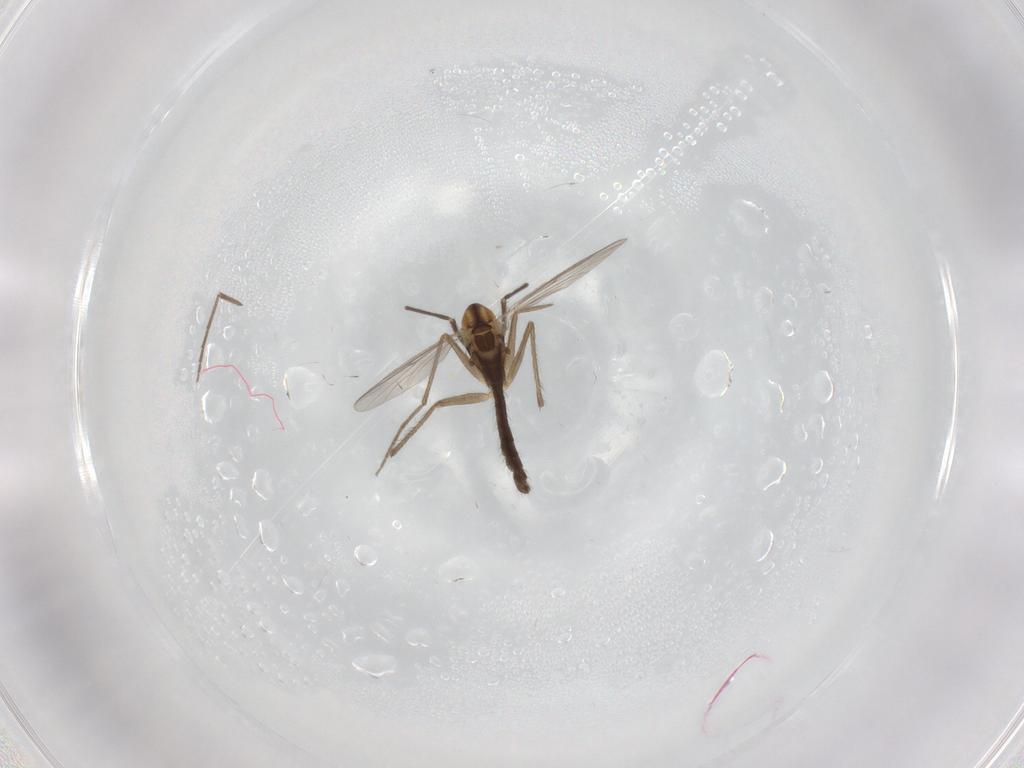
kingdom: Animalia
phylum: Arthropoda
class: Insecta
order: Diptera
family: Chironomidae
